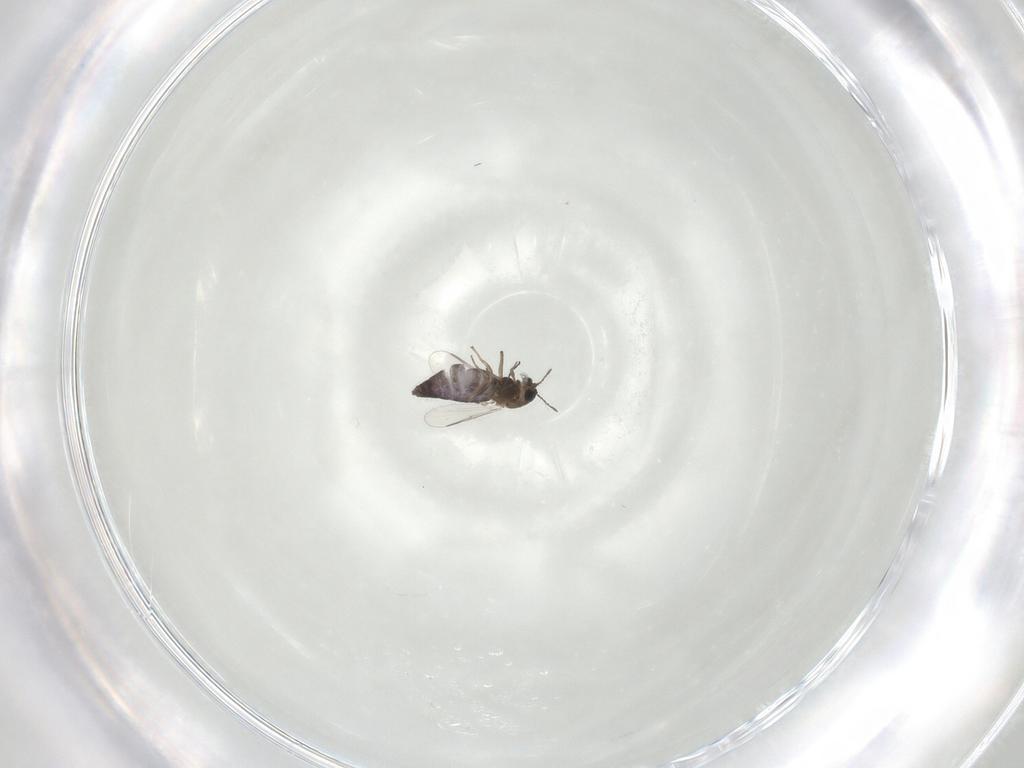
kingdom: Animalia
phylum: Arthropoda
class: Insecta
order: Diptera
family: Chironomidae
